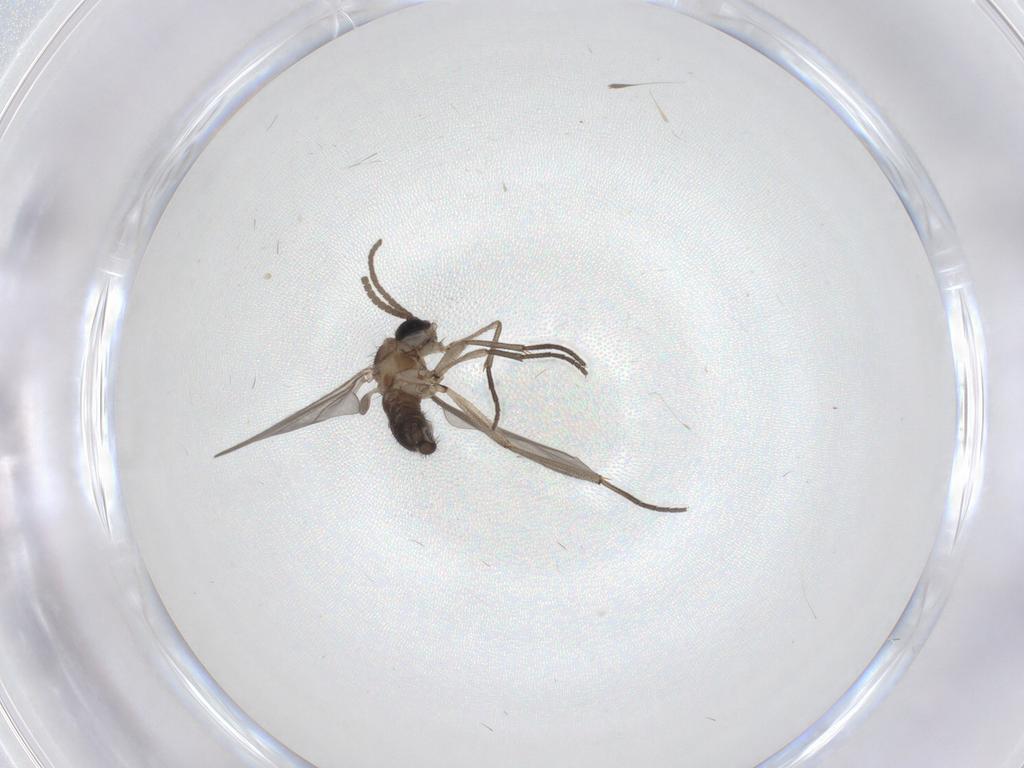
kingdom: Animalia
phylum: Arthropoda
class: Insecta
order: Diptera
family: Hybotidae
